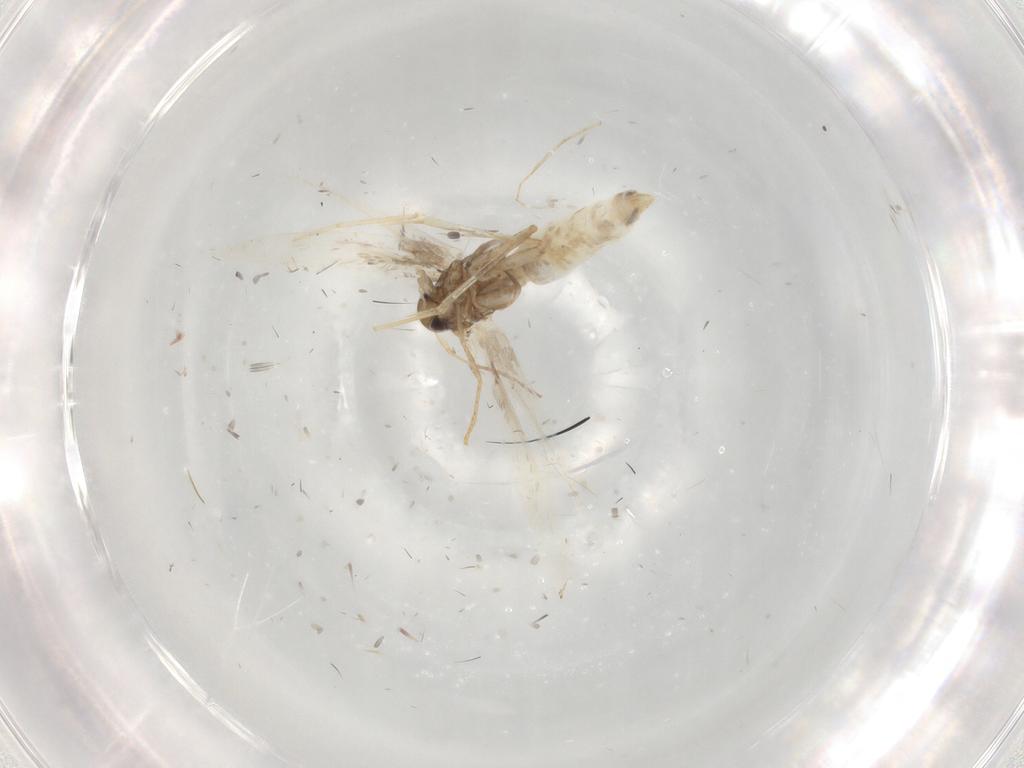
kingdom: Animalia
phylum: Arthropoda
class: Insecta
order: Lepidoptera
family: Gracillariidae
